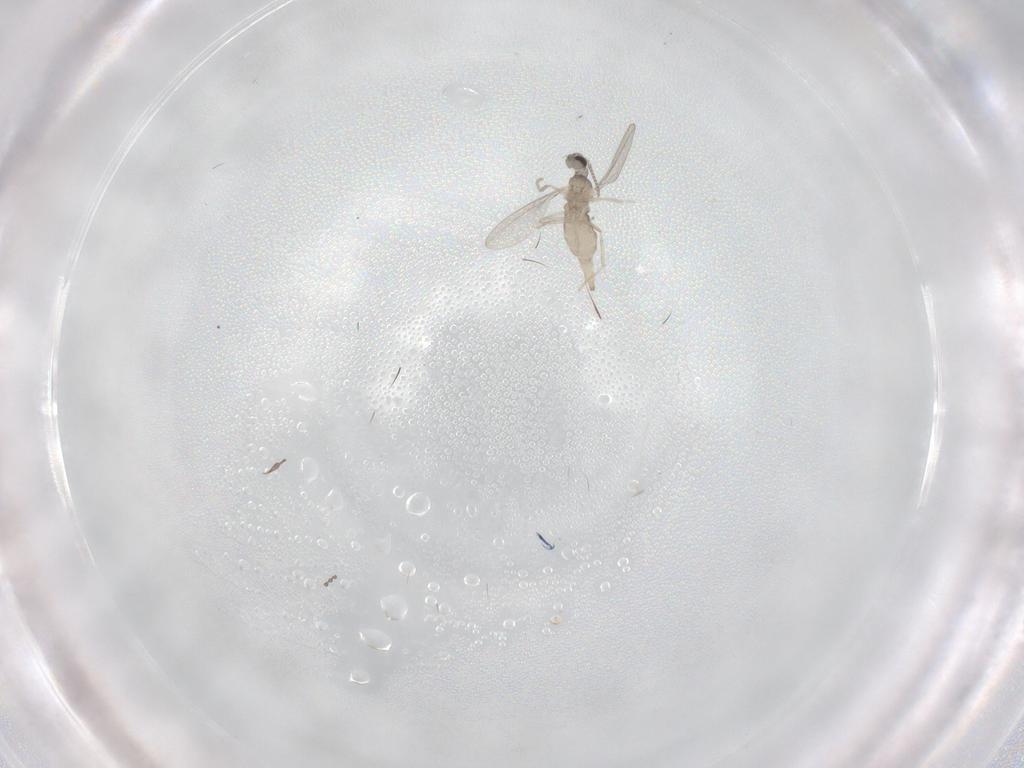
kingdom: Animalia
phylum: Arthropoda
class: Insecta
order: Diptera
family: Cecidomyiidae
